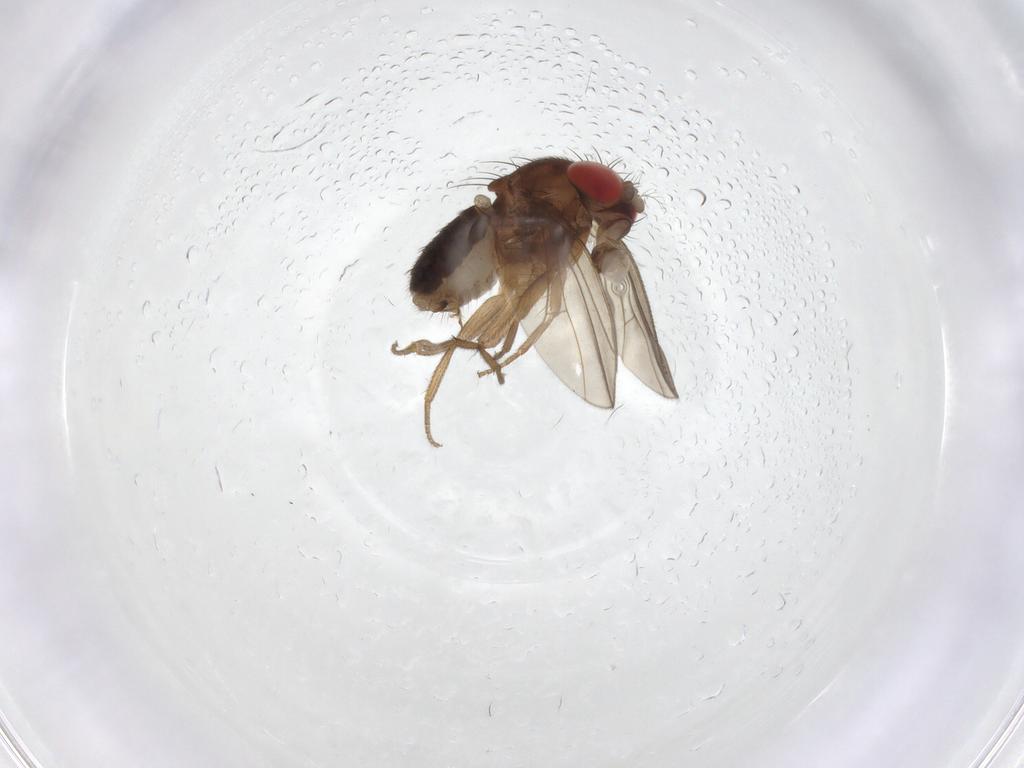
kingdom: Animalia
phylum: Arthropoda
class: Insecta
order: Diptera
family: Drosophilidae
